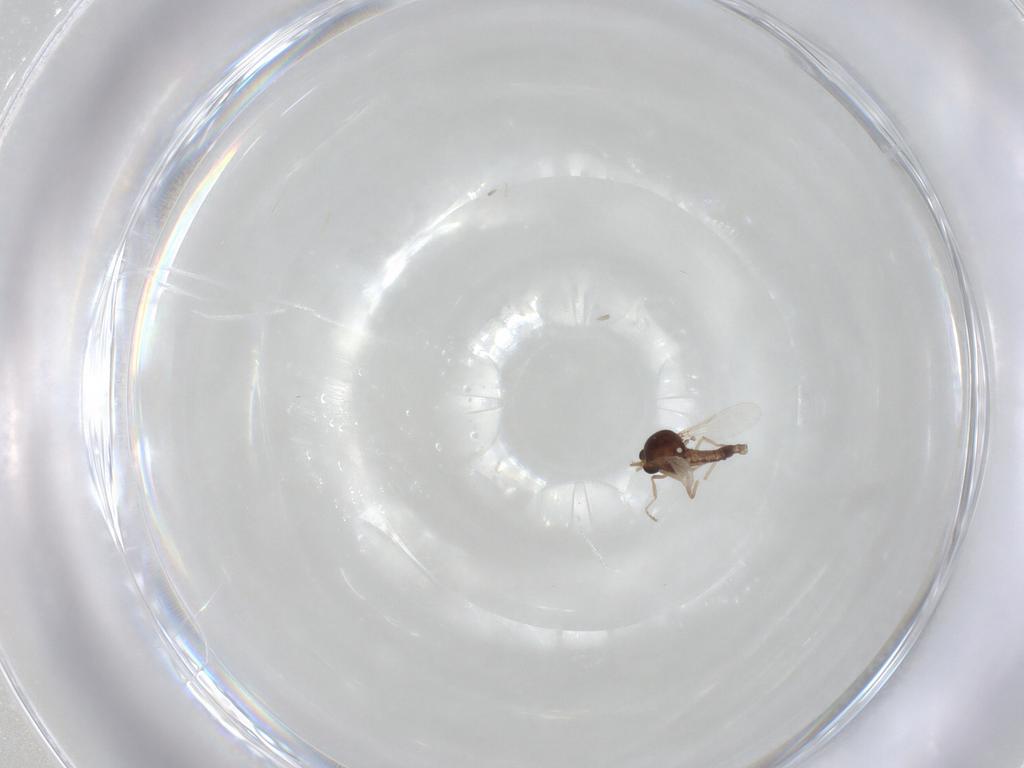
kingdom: Animalia
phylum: Arthropoda
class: Insecta
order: Diptera
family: Ceratopogonidae
